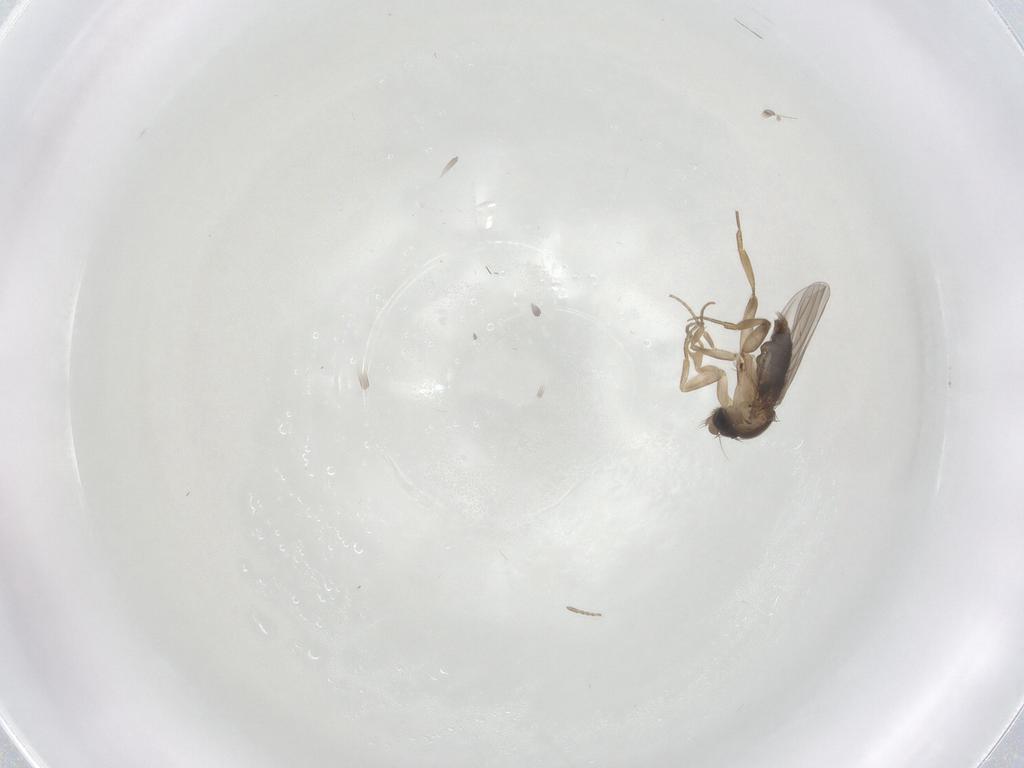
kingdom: Animalia
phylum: Arthropoda
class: Insecta
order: Diptera
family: Phoridae
